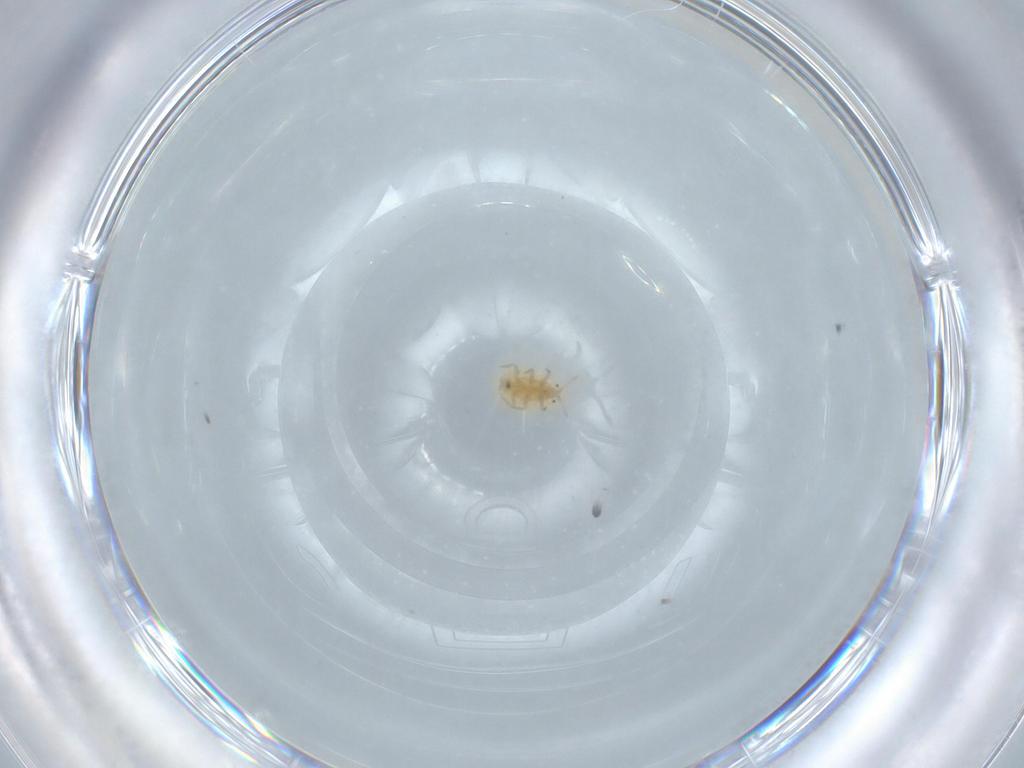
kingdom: Animalia
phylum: Arthropoda
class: Insecta
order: Hemiptera
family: Pseudococcidae
